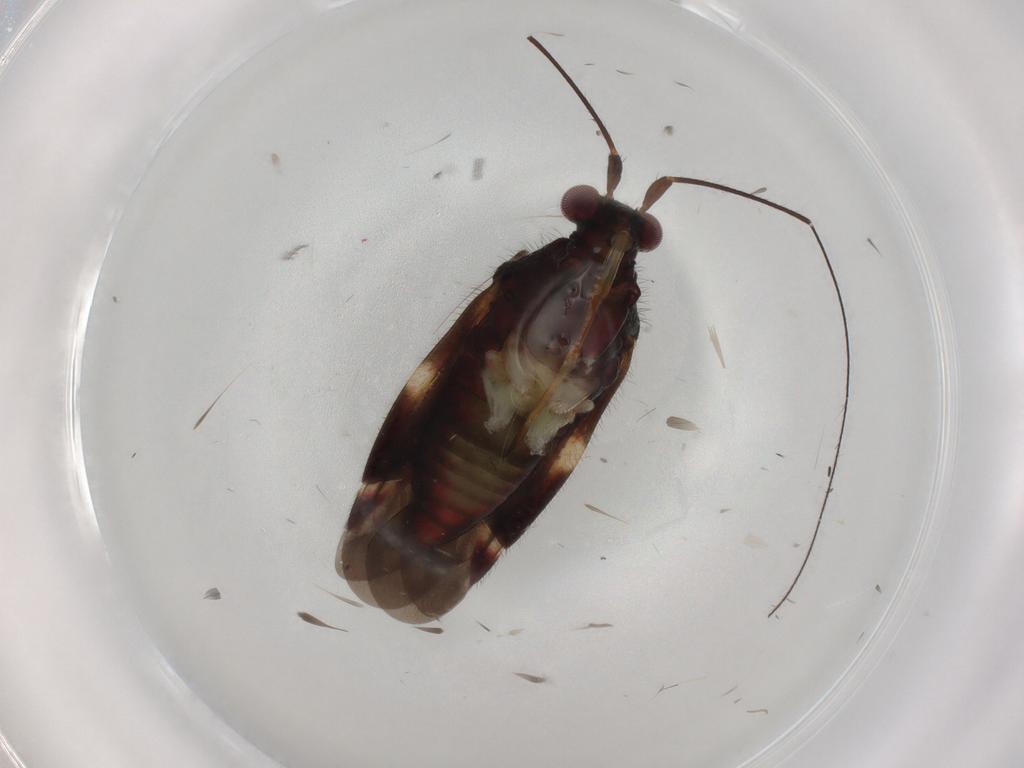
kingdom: Animalia
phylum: Arthropoda
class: Insecta
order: Hemiptera
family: Miridae
